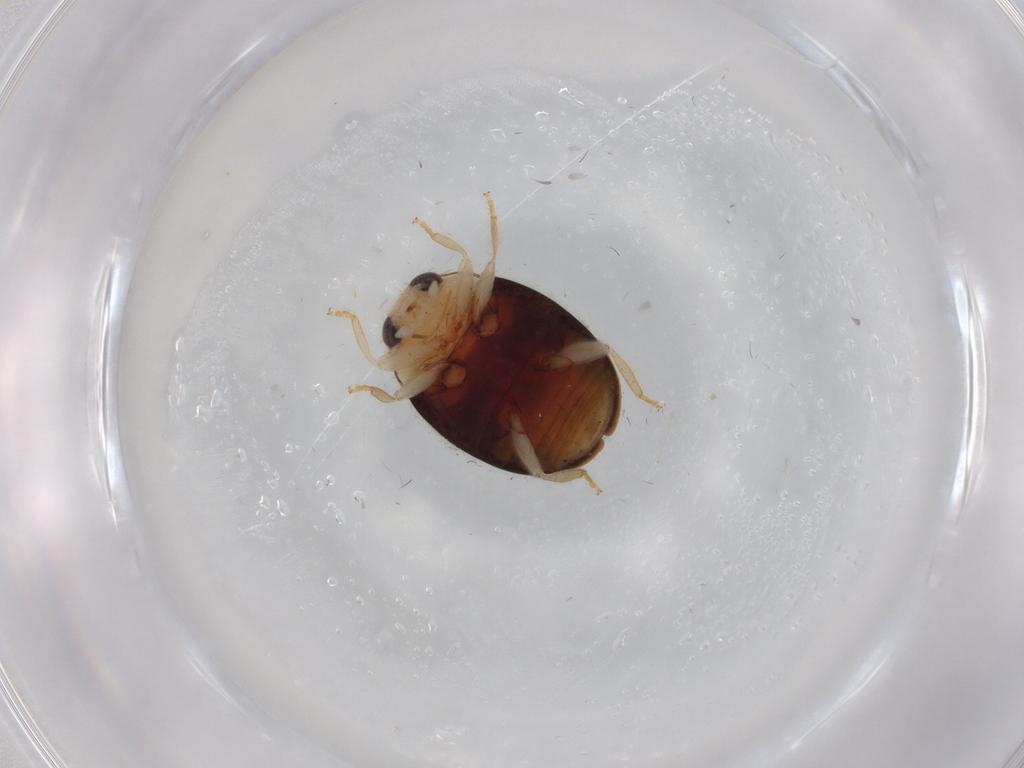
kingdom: Animalia
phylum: Arthropoda
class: Insecta
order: Coleoptera
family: Coccinellidae
